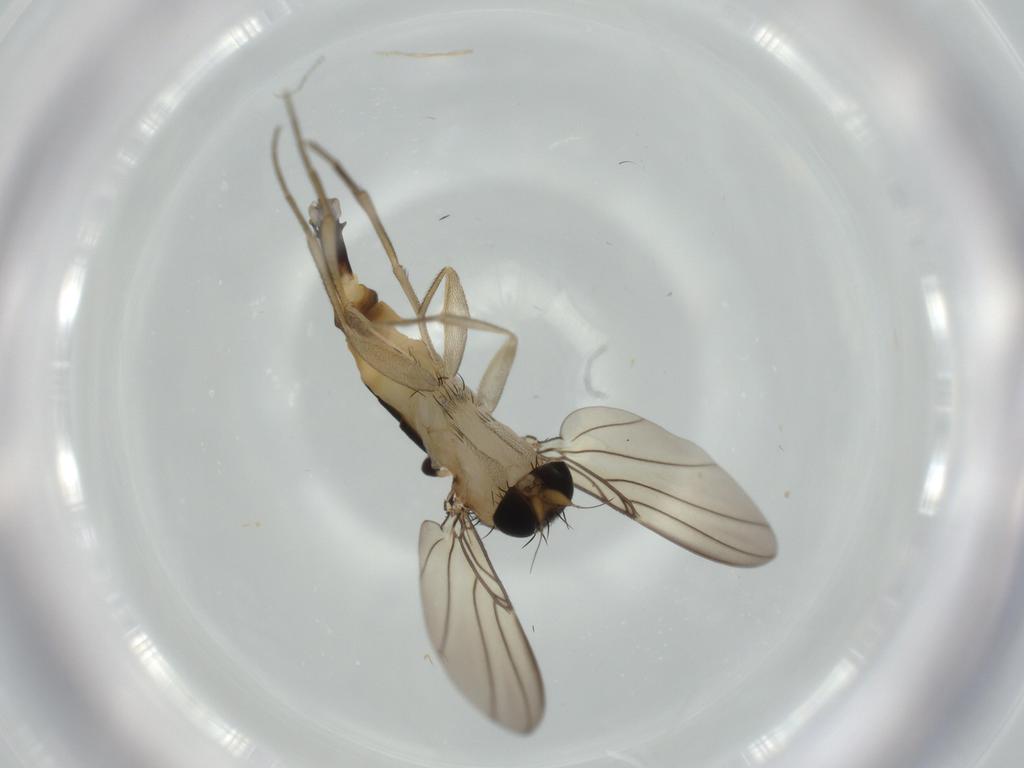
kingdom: Animalia
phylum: Arthropoda
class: Insecta
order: Diptera
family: Phoridae
